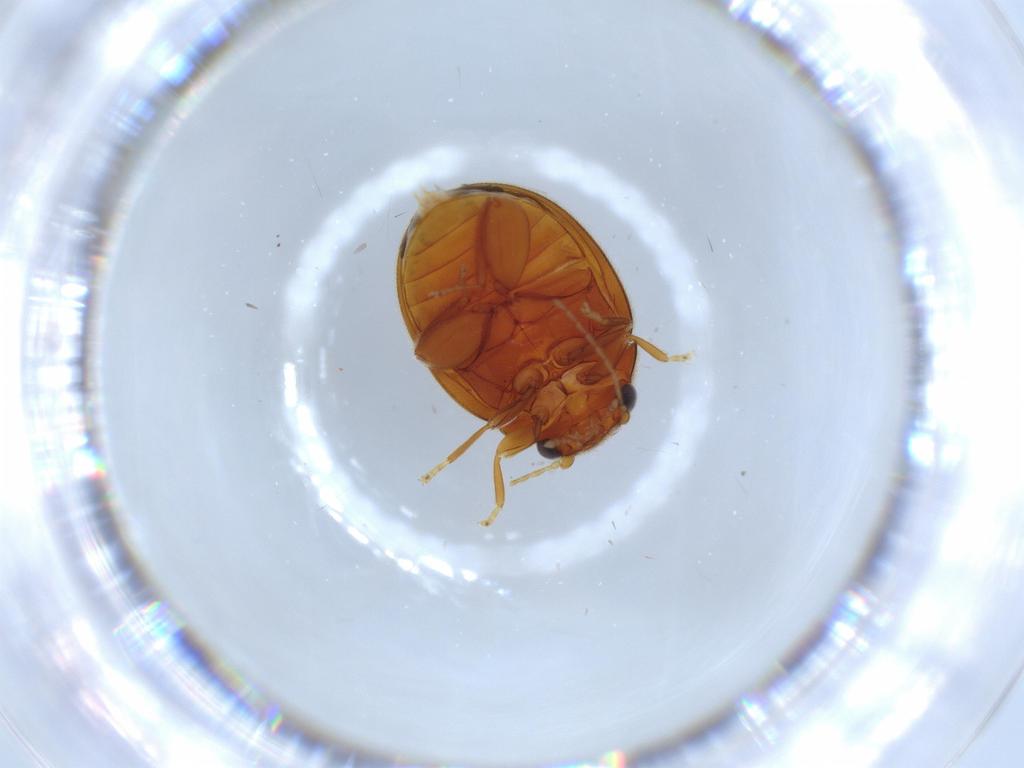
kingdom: Animalia
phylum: Arthropoda
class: Insecta
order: Coleoptera
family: Scirtidae
